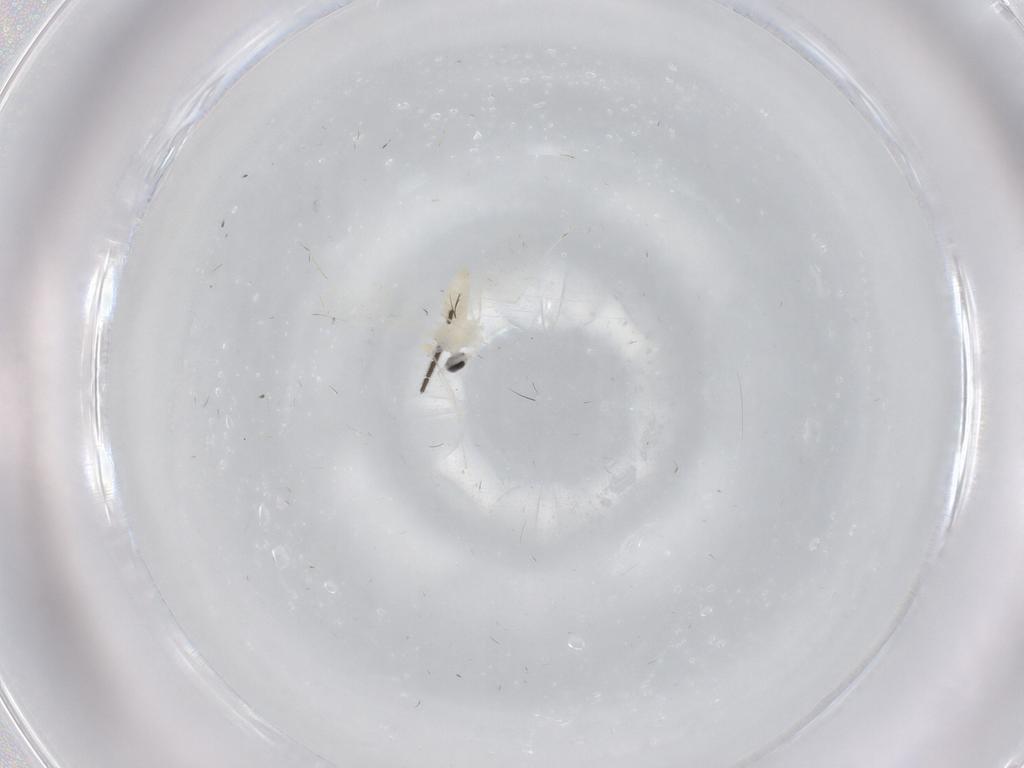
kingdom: Animalia
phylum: Arthropoda
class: Insecta
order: Diptera
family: Cecidomyiidae
